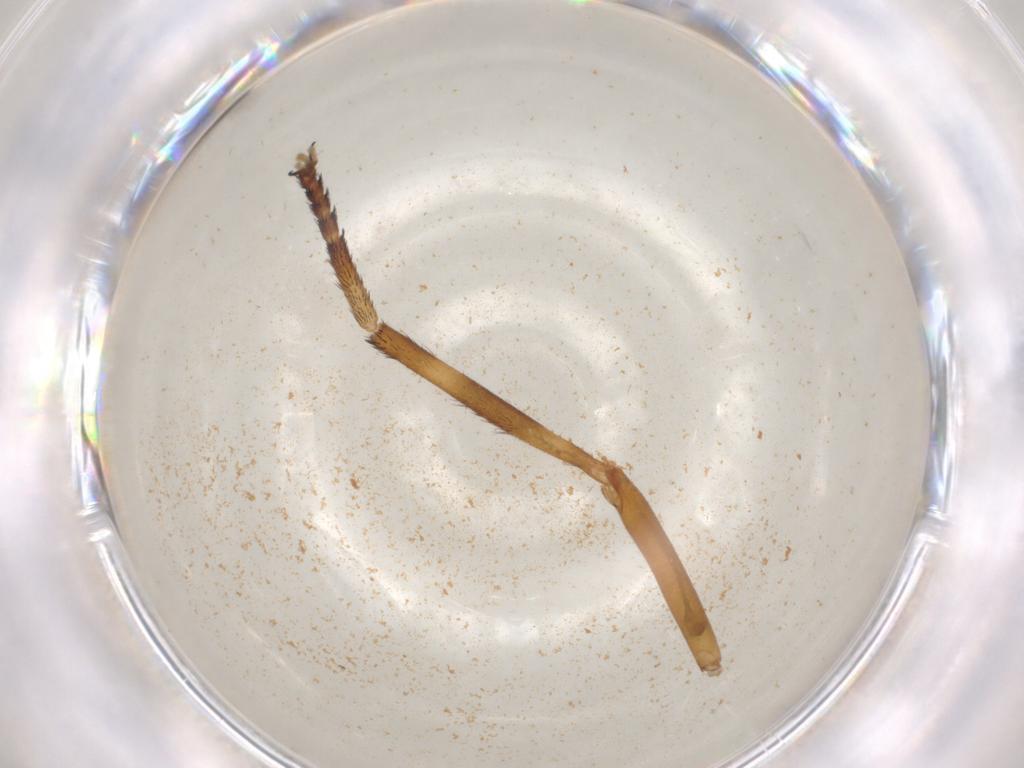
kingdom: Animalia
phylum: Arthropoda
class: Insecta
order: Diptera
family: Tabanidae
